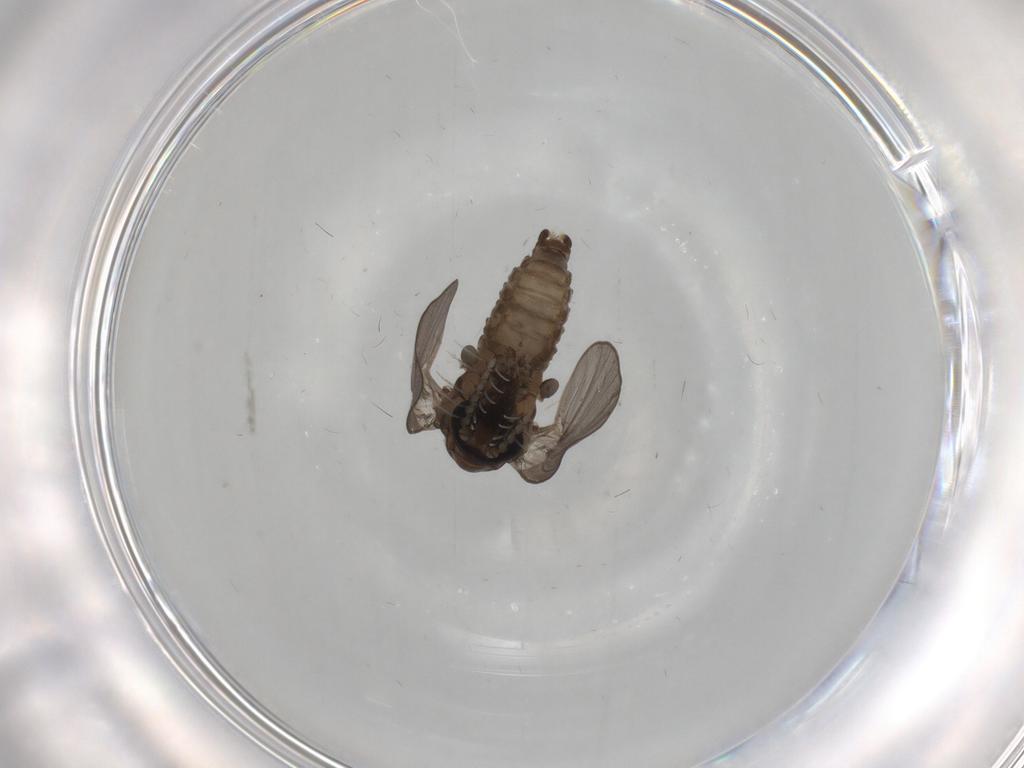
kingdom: Animalia
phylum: Arthropoda
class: Insecta
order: Diptera
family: Psychodidae
